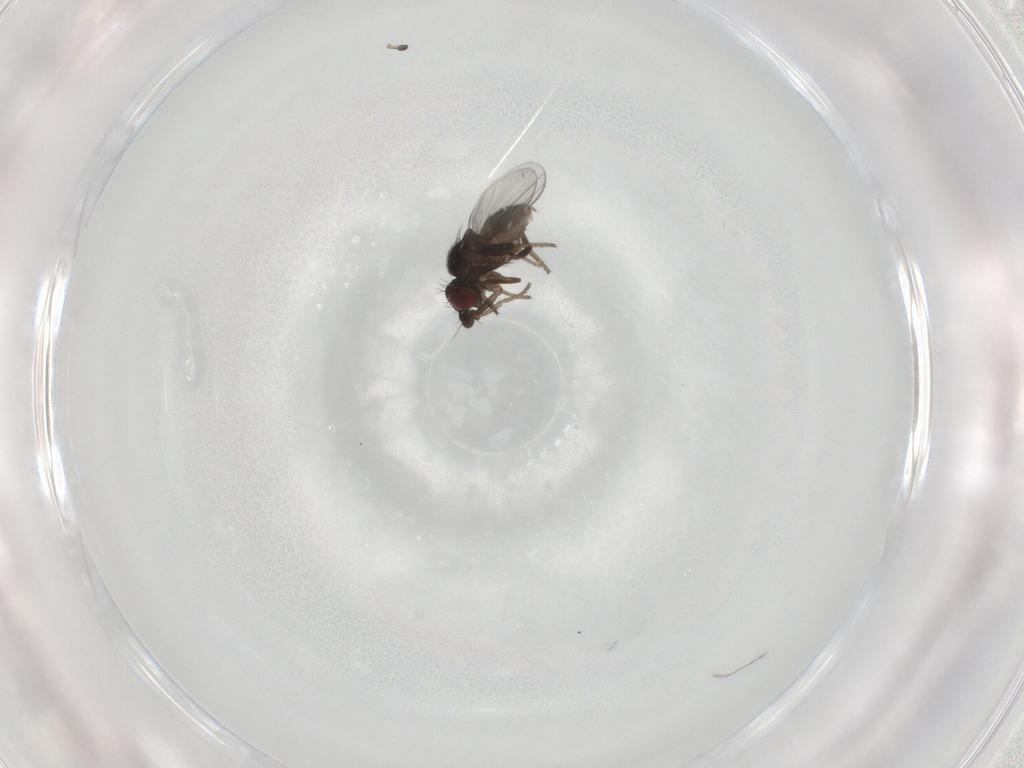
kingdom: Animalia
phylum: Arthropoda
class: Insecta
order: Diptera
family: Milichiidae
